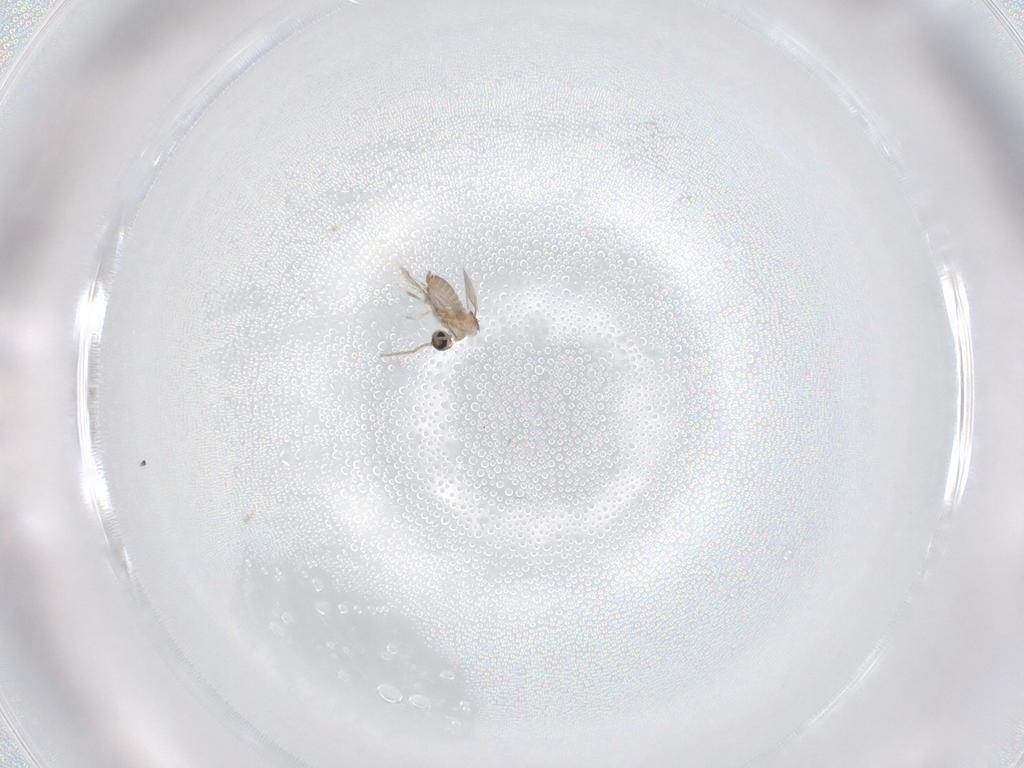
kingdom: Animalia
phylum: Arthropoda
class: Insecta
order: Diptera
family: Cecidomyiidae
